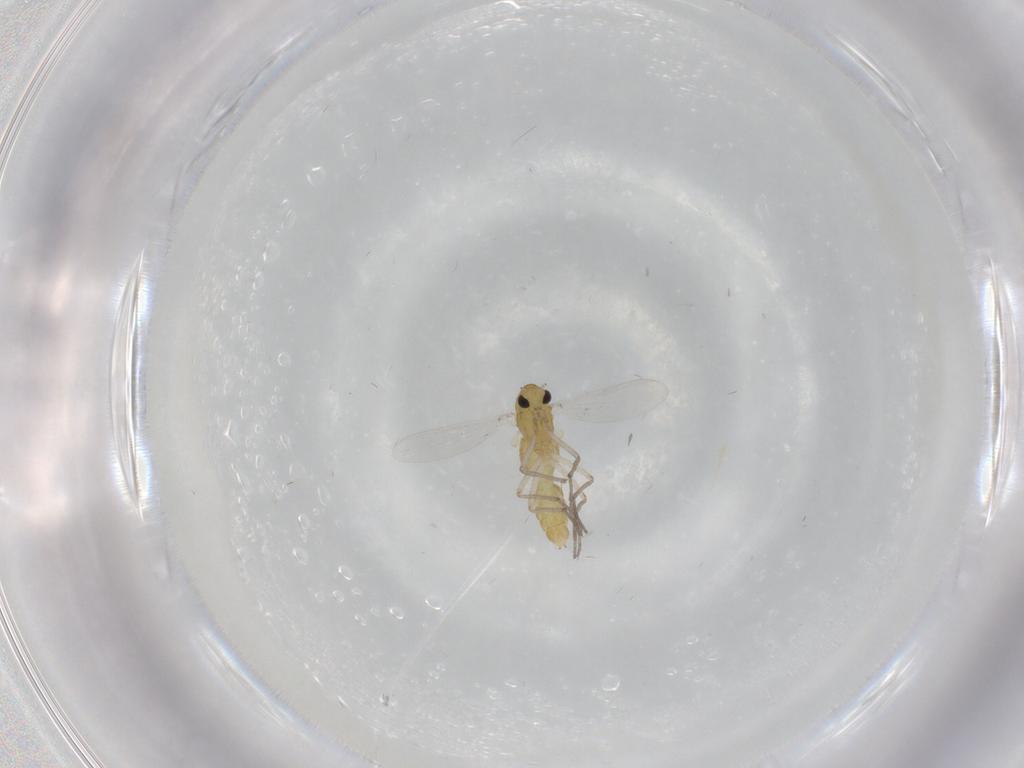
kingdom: Animalia
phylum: Arthropoda
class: Insecta
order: Diptera
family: Chironomidae
